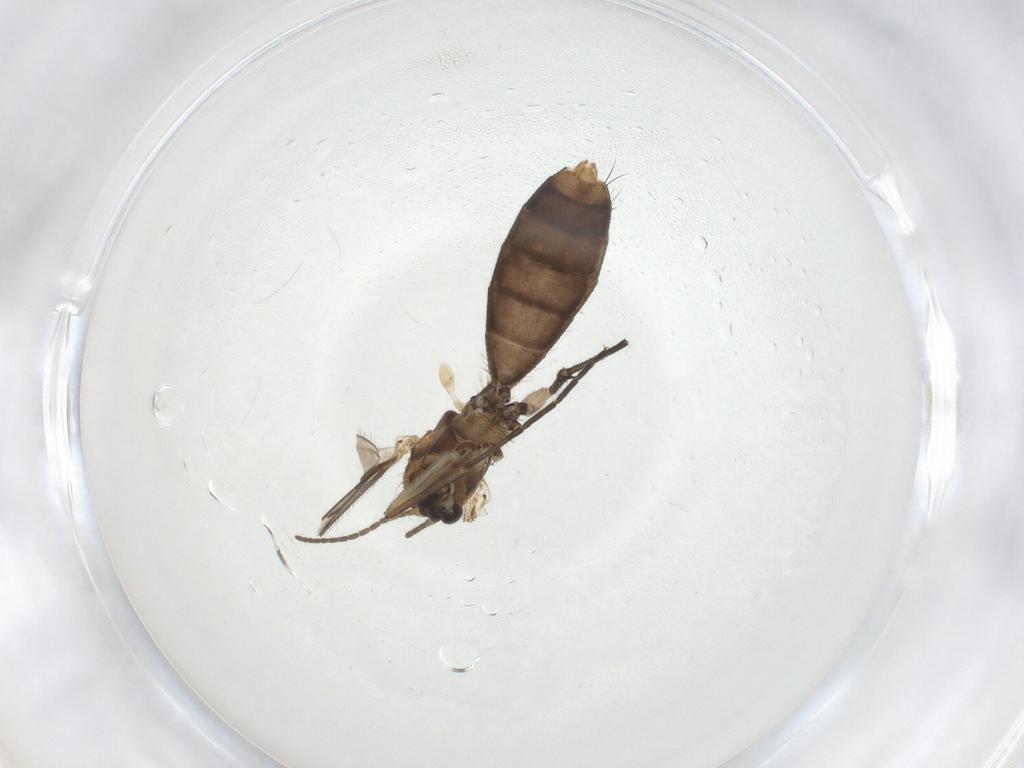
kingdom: Animalia
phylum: Arthropoda
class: Insecta
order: Diptera
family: Mycetophilidae
